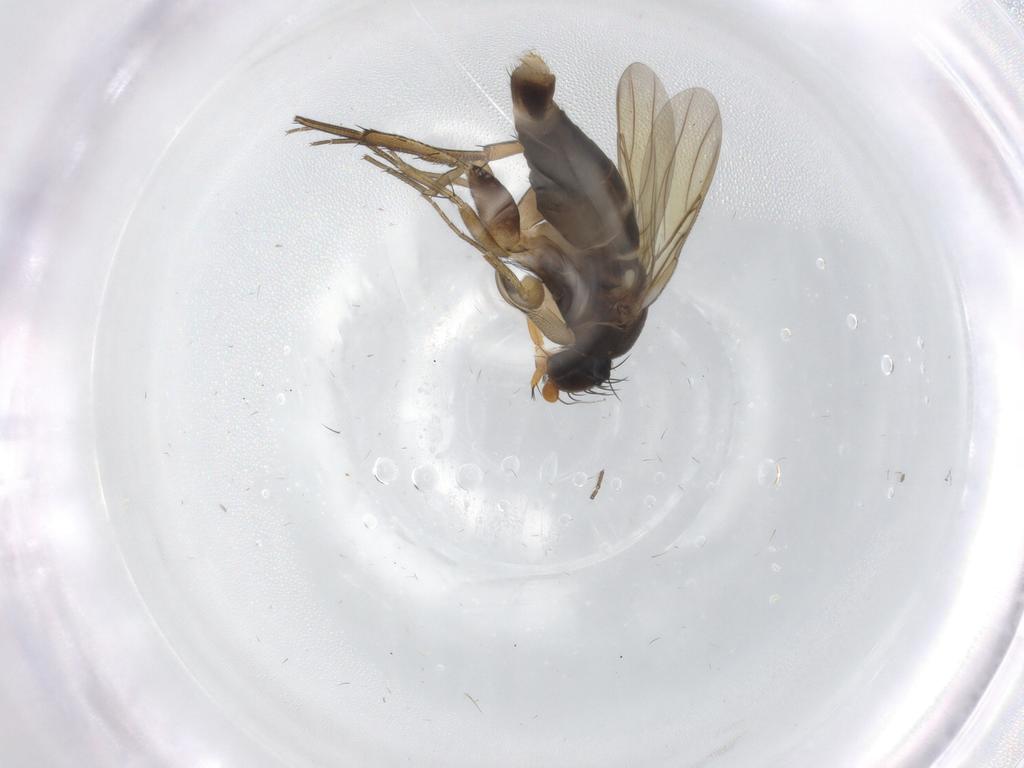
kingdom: Animalia
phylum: Arthropoda
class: Insecta
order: Diptera
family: Phoridae
